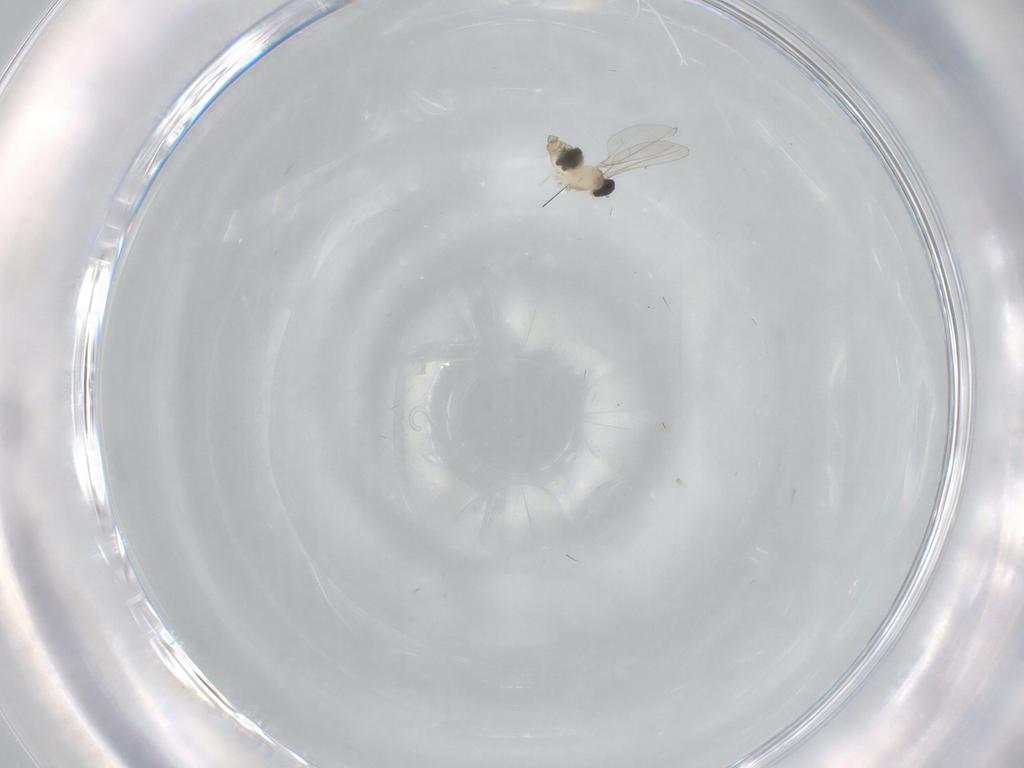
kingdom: Animalia
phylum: Arthropoda
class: Insecta
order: Diptera
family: Cecidomyiidae
